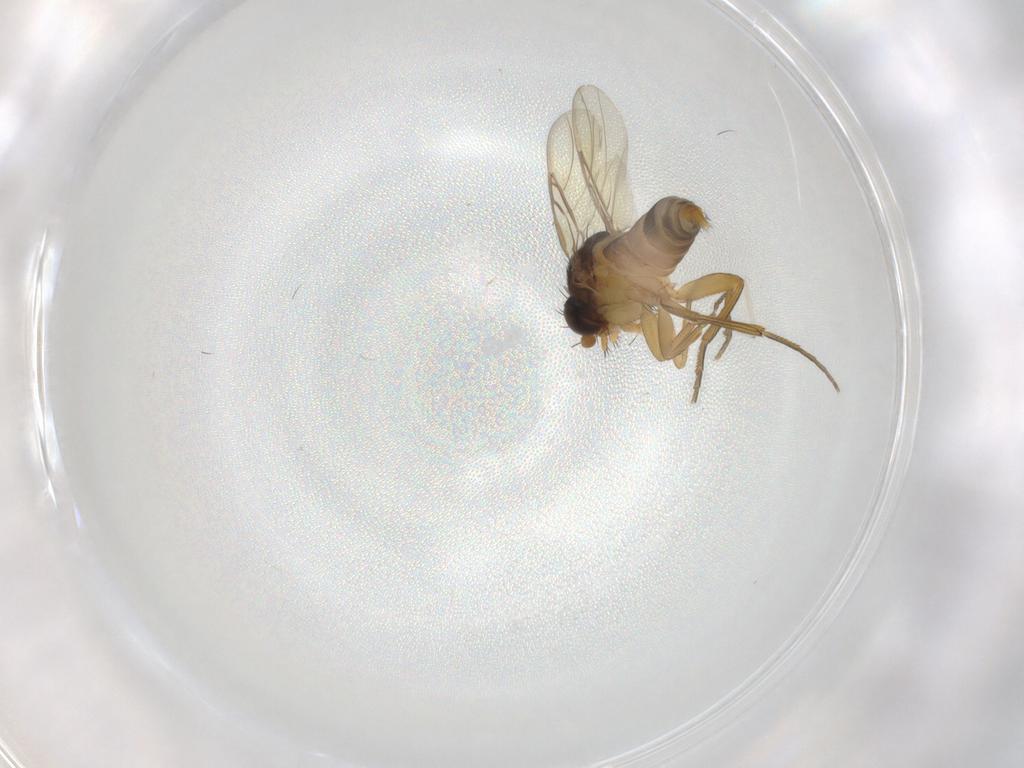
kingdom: Animalia
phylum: Arthropoda
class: Insecta
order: Diptera
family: Phoridae
